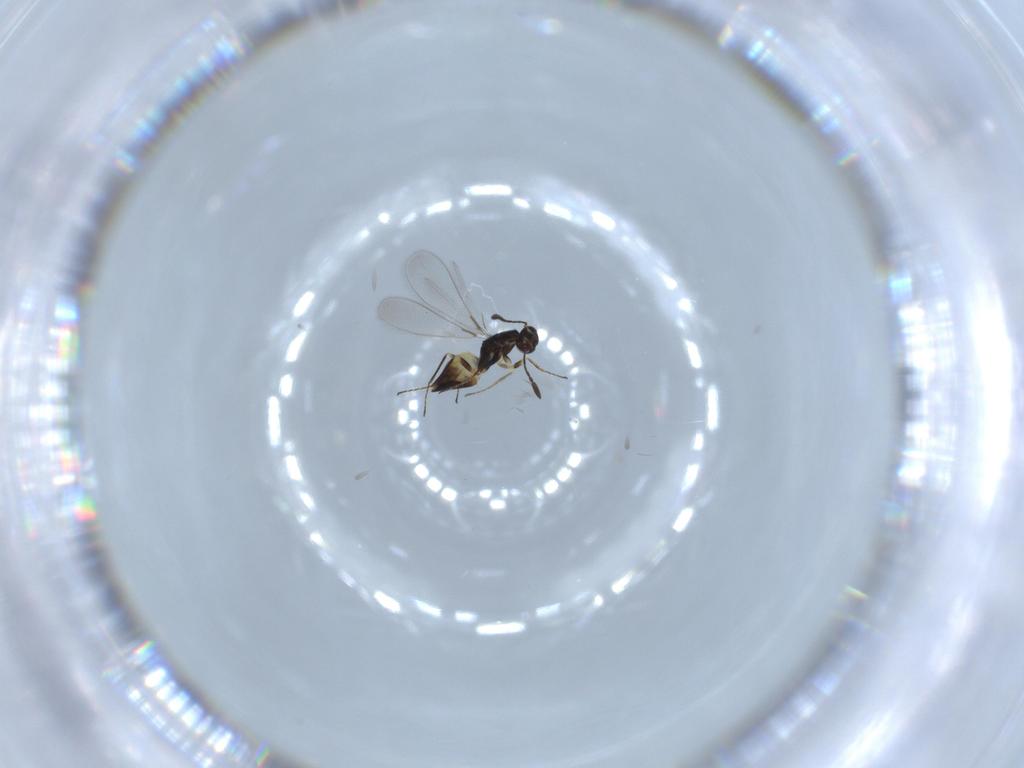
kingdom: Animalia
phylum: Arthropoda
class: Insecta
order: Hymenoptera
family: Mymaridae
